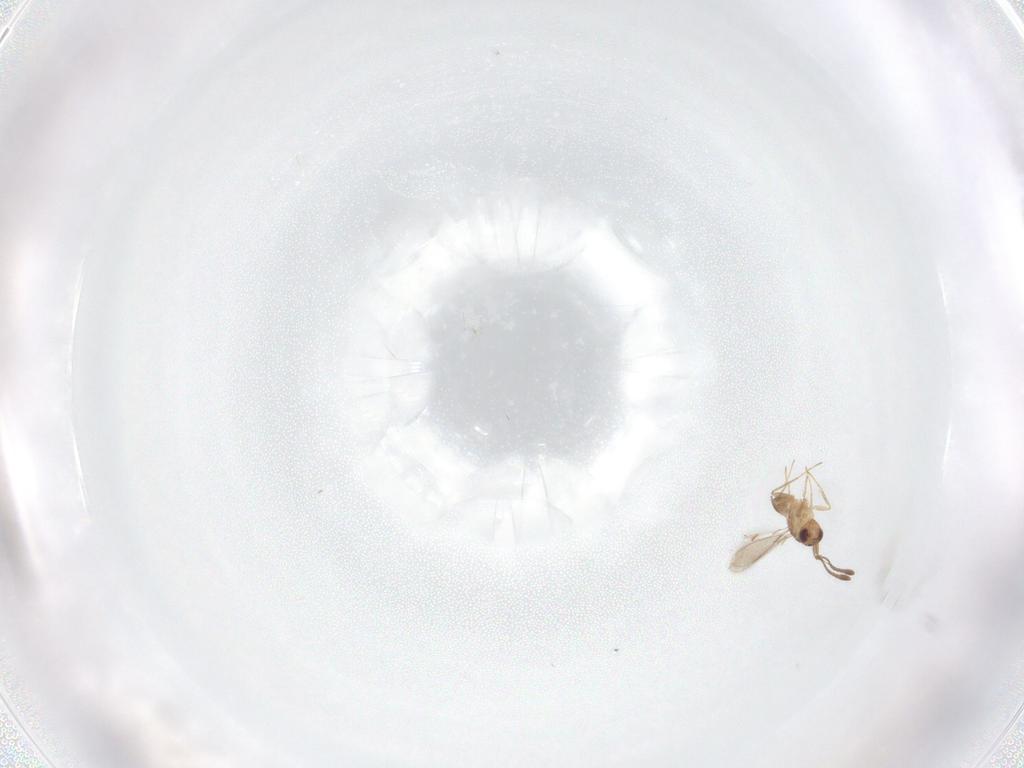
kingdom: Animalia
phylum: Arthropoda
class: Insecta
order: Hymenoptera
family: Mymaridae
